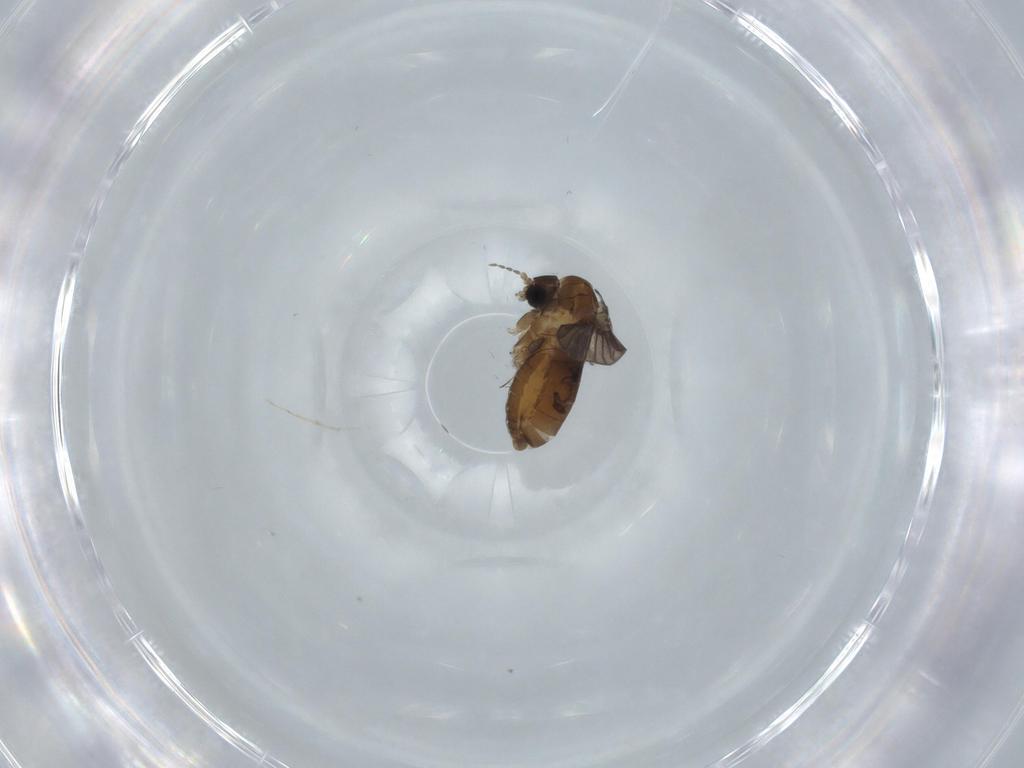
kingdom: Animalia
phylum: Arthropoda
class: Insecta
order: Diptera
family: Psychodidae
